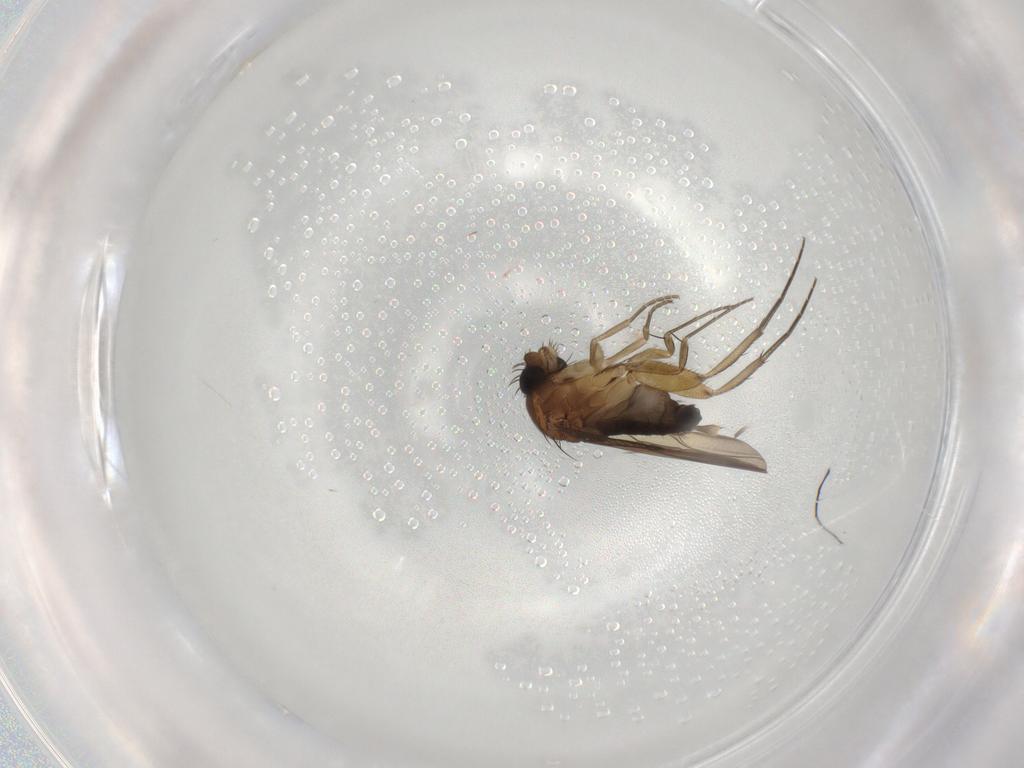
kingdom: Animalia
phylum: Arthropoda
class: Insecta
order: Diptera
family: Phoridae
